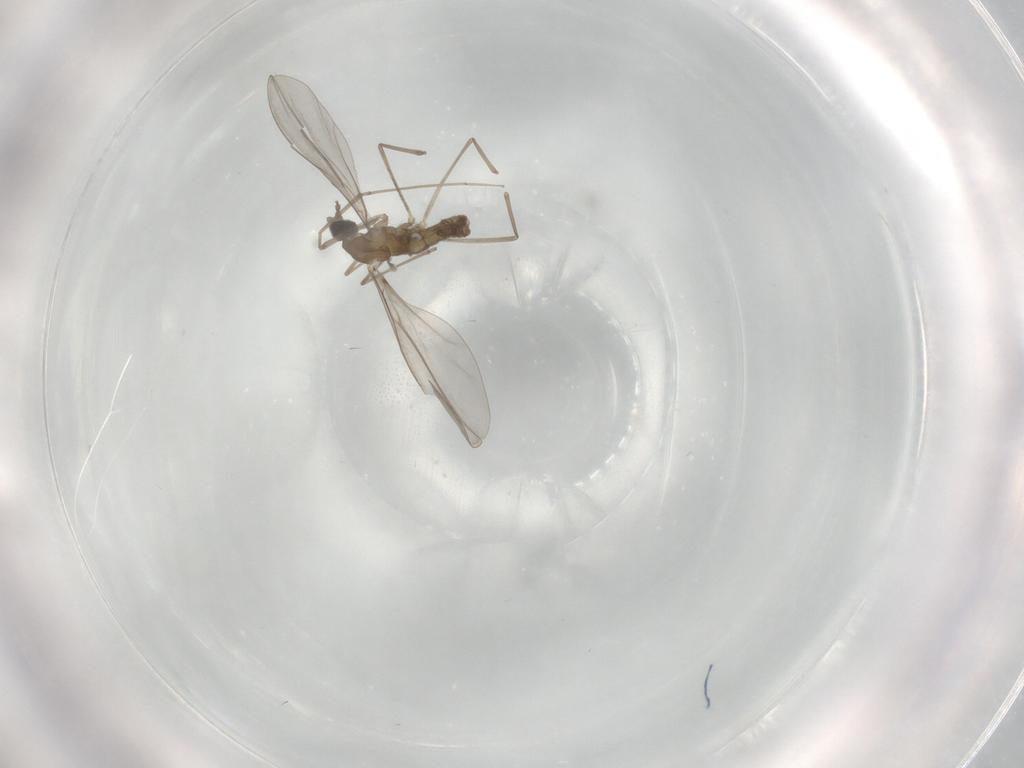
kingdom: Animalia
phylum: Arthropoda
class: Insecta
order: Diptera
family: Cecidomyiidae
